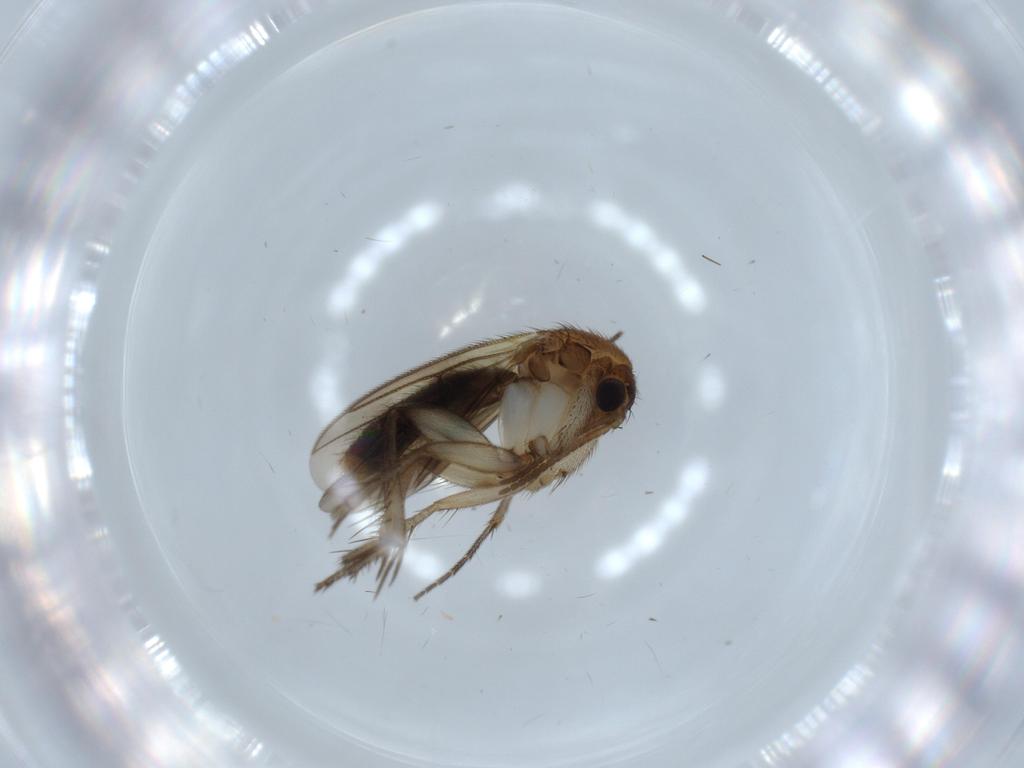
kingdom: Animalia
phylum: Arthropoda
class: Insecta
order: Diptera
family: Mycetophilidae
